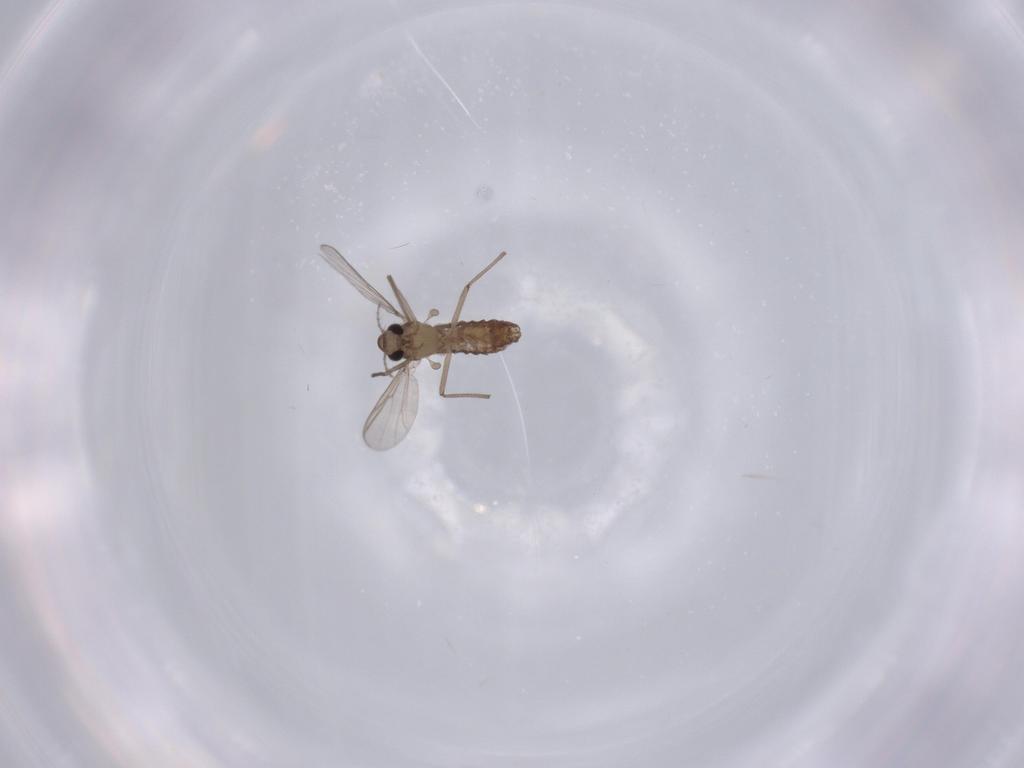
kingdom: Animalia
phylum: Arthropoda
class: Insecta
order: Diptera
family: Chironomidae
